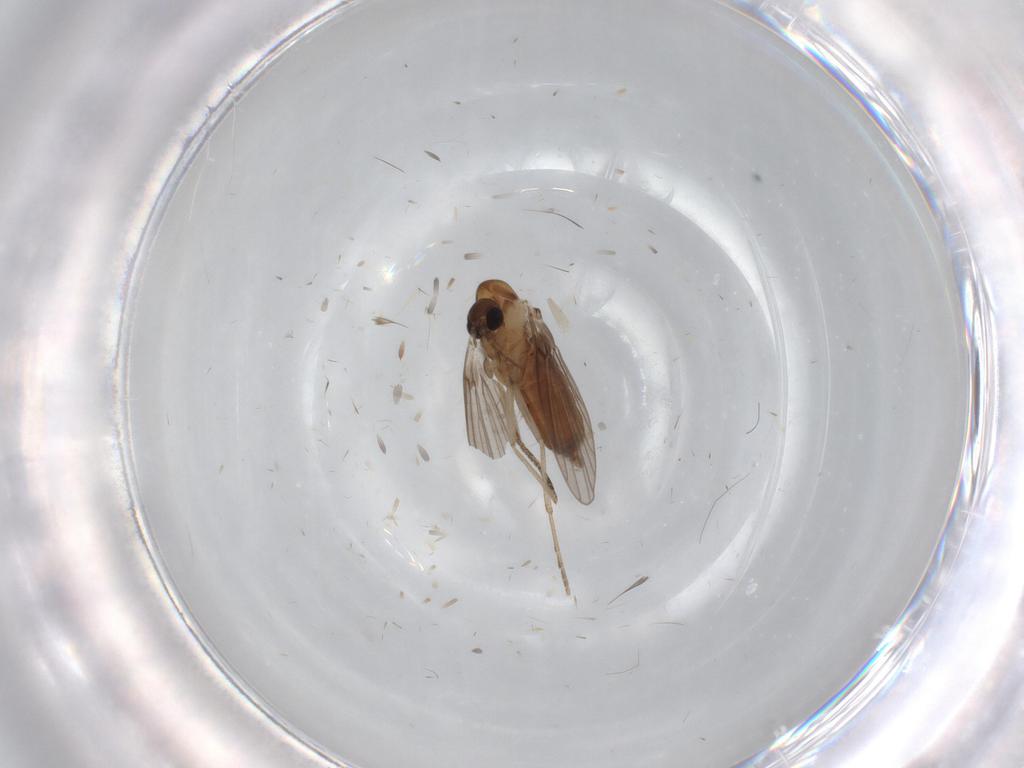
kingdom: Animalia
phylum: Arthropoda
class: Insecta
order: Diptera
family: Limoniidae
